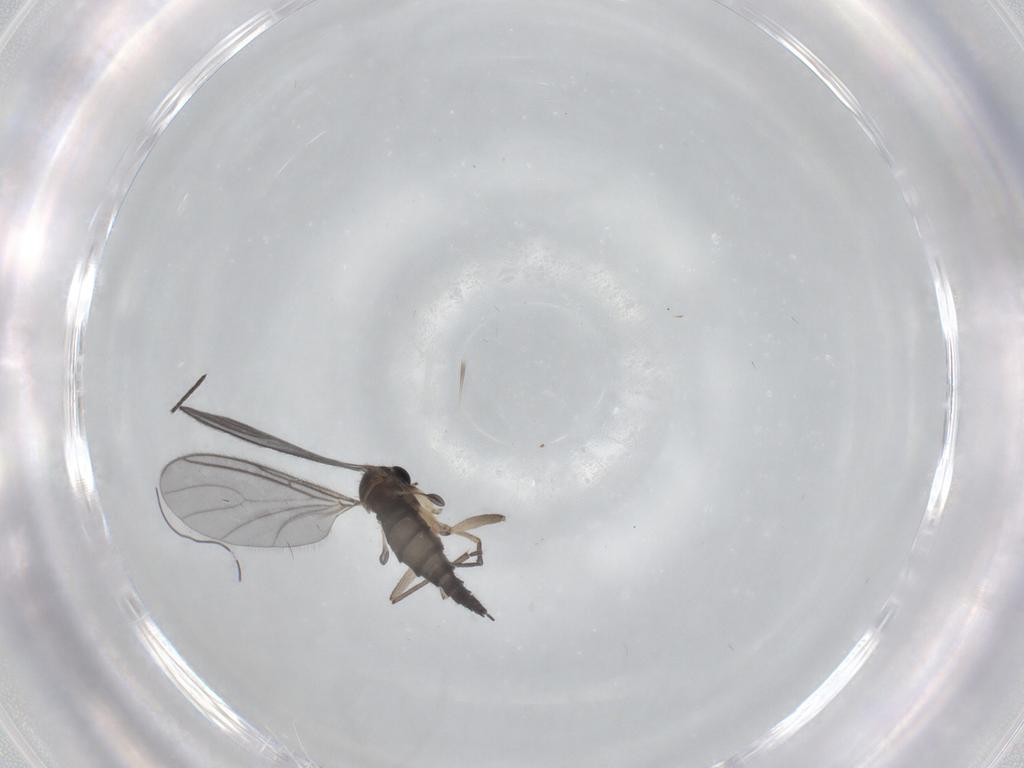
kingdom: Animalia
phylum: Arthropoda
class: Insecta
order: Diptera
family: Sciaridae
